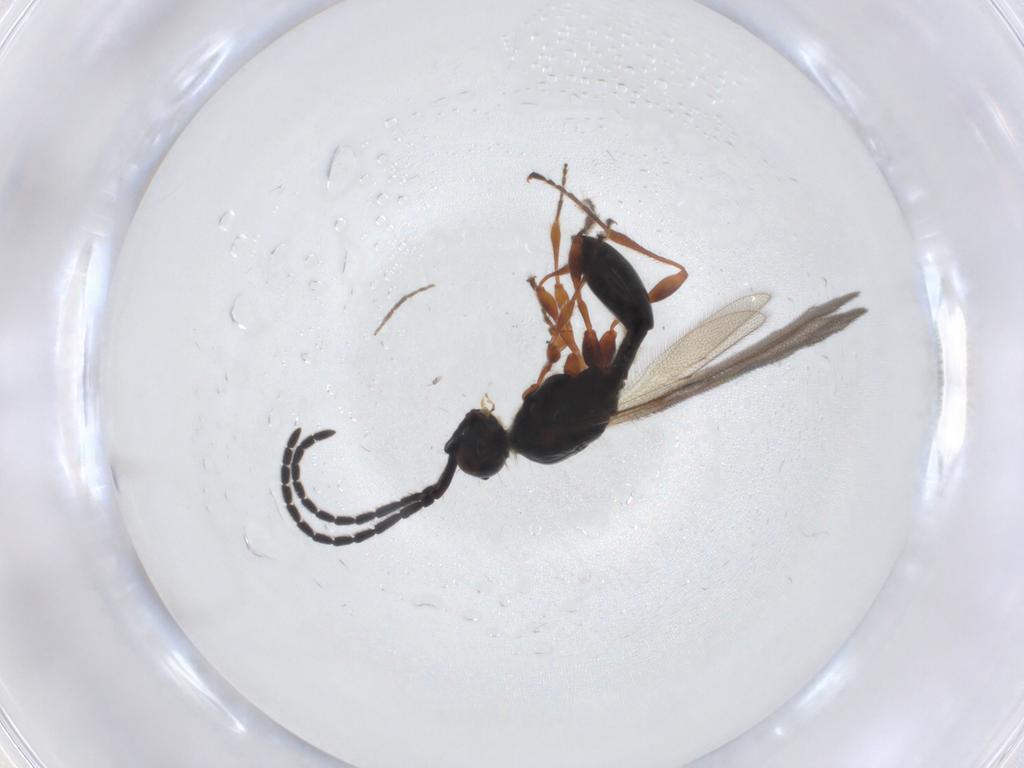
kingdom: Animalia
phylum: Arthropoda
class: Insecta
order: Hymenoptera
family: Diapriidae
